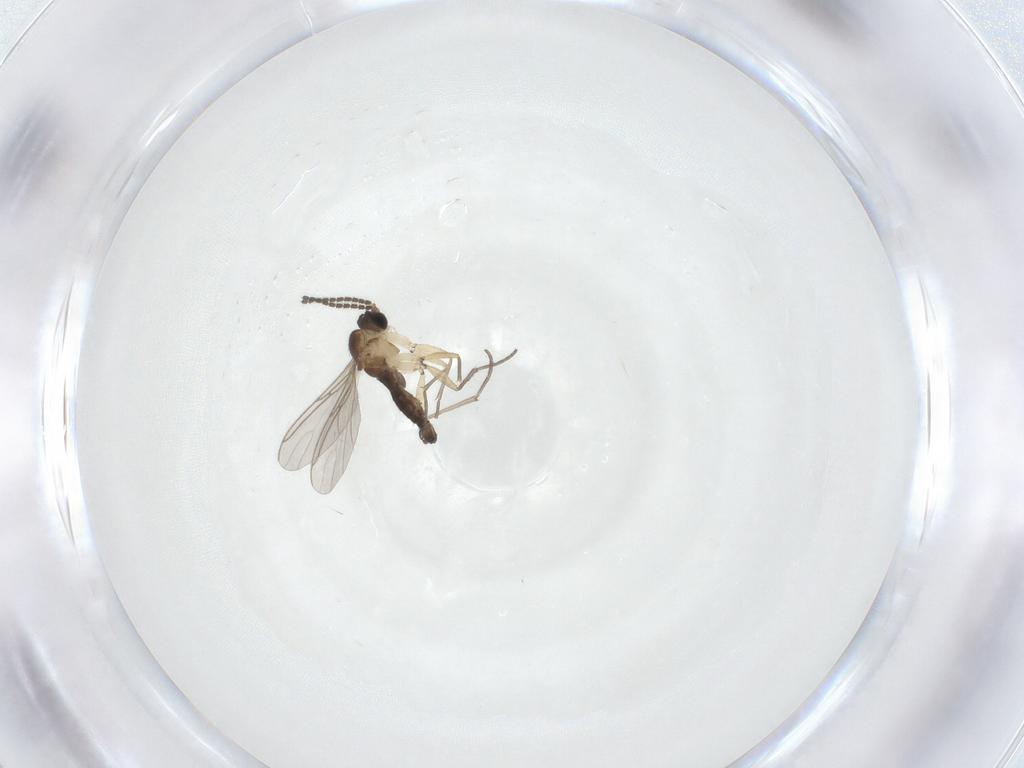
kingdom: Animalia
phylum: Arthropoda
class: Insecta
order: Diptera
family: Sciaridae
